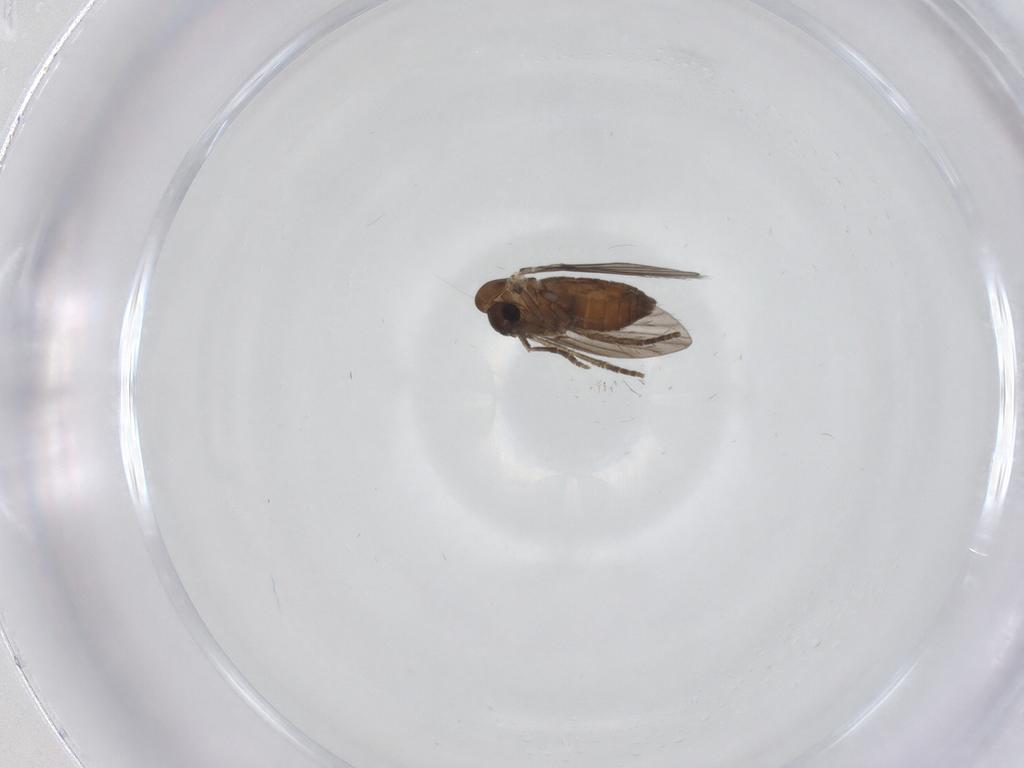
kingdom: Animalia
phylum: Arthropoda
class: Insecta
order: Diptera
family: Psychodidae
